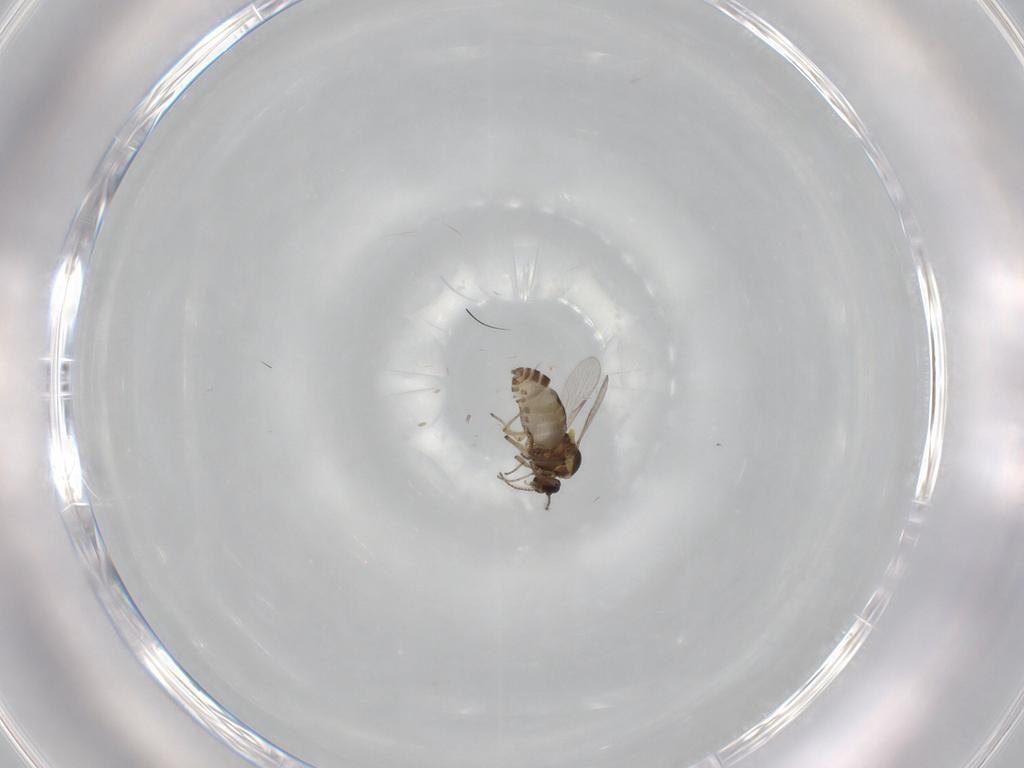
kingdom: Animalia
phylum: Arthropoda
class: Insecta
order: Diptera
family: Ceratopogonidae
